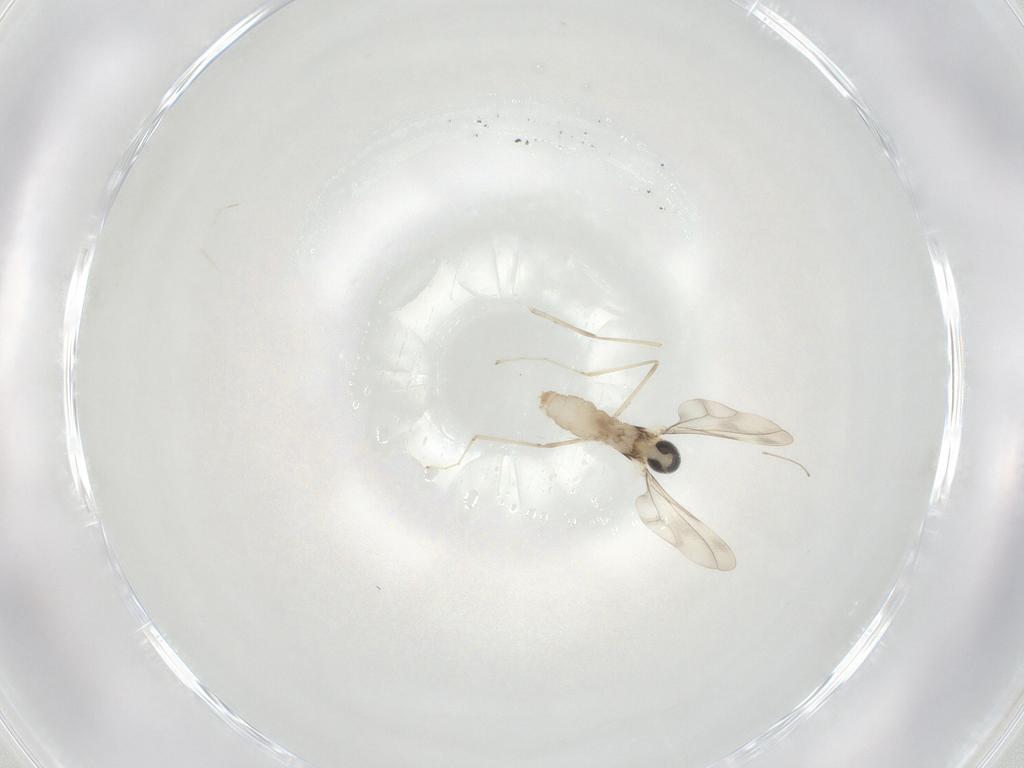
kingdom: Animalia
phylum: Arthropoda
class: Insecta
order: Diptera
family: Cecidomyiidae
